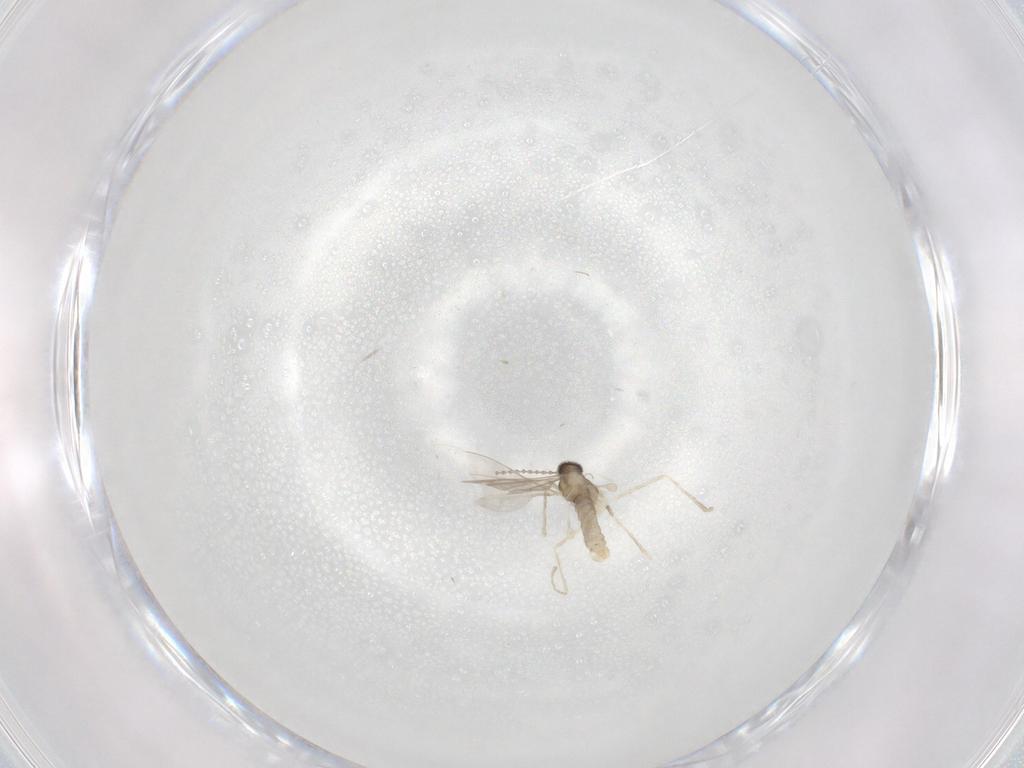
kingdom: Animalia
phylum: Arthropoda
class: Insecta
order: Diptera
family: Cecidomyiidae
